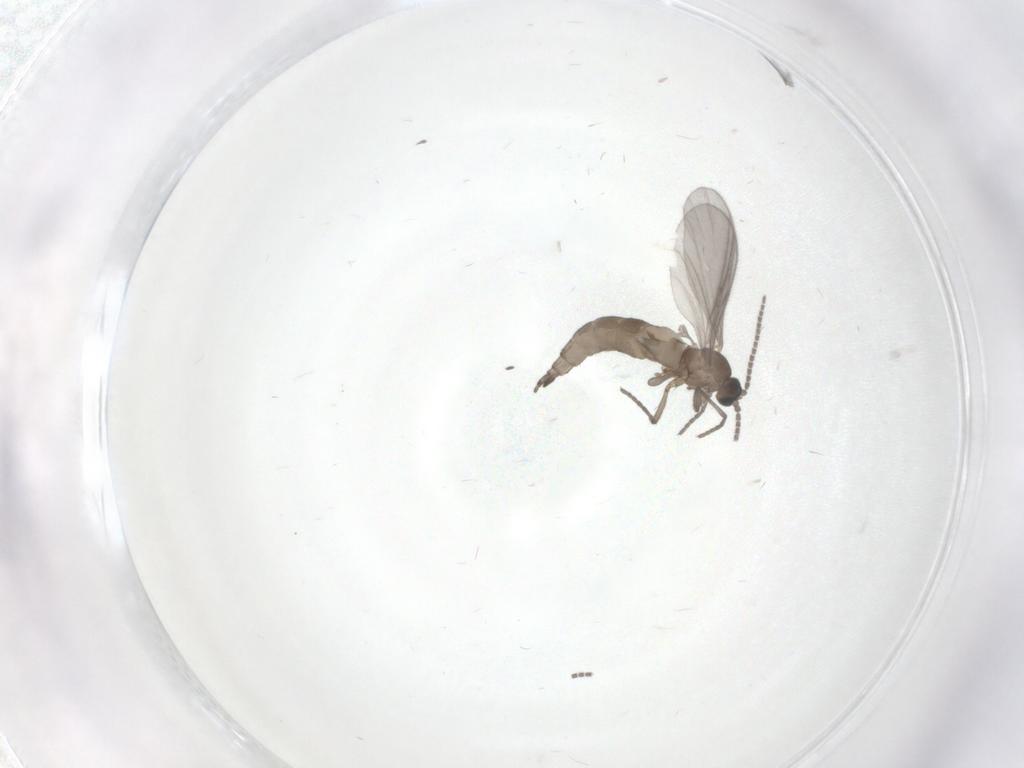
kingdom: Animalia
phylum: Arthropoda
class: Insecta
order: Diptera
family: Sciaridae
